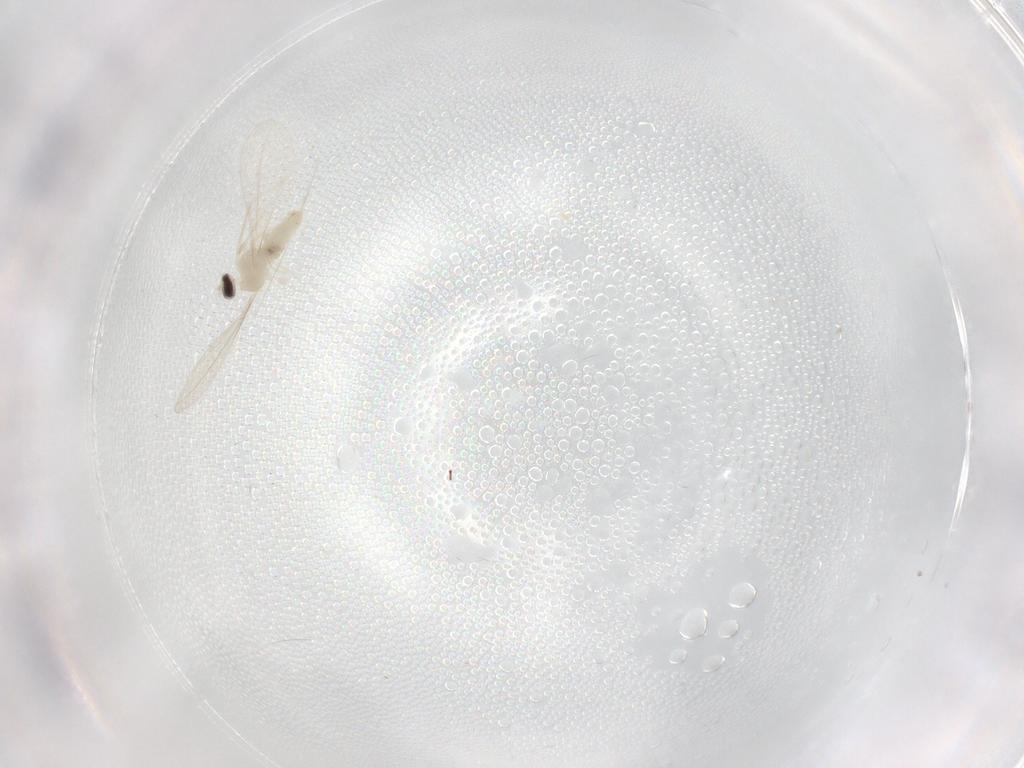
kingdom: Animalia
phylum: Arthropoda
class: Insecta
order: Diptera
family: Cecidomyiidae
